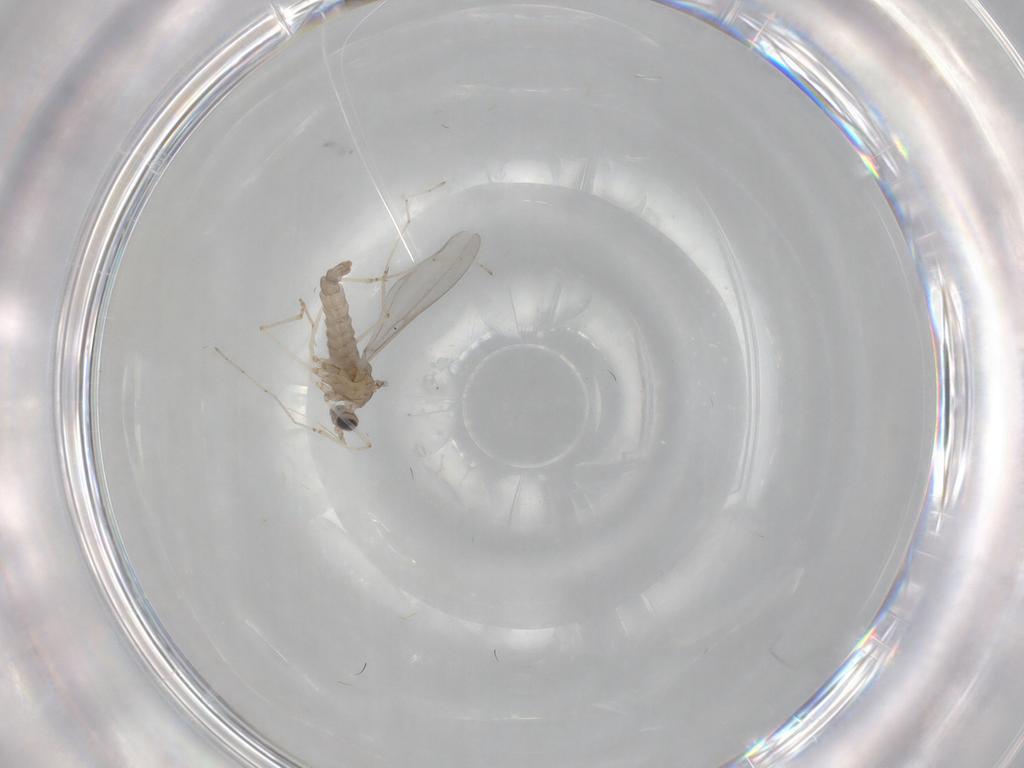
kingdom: Animalia
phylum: Arthropoda
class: Insecta
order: Diptera
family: Cecidomyiidae
